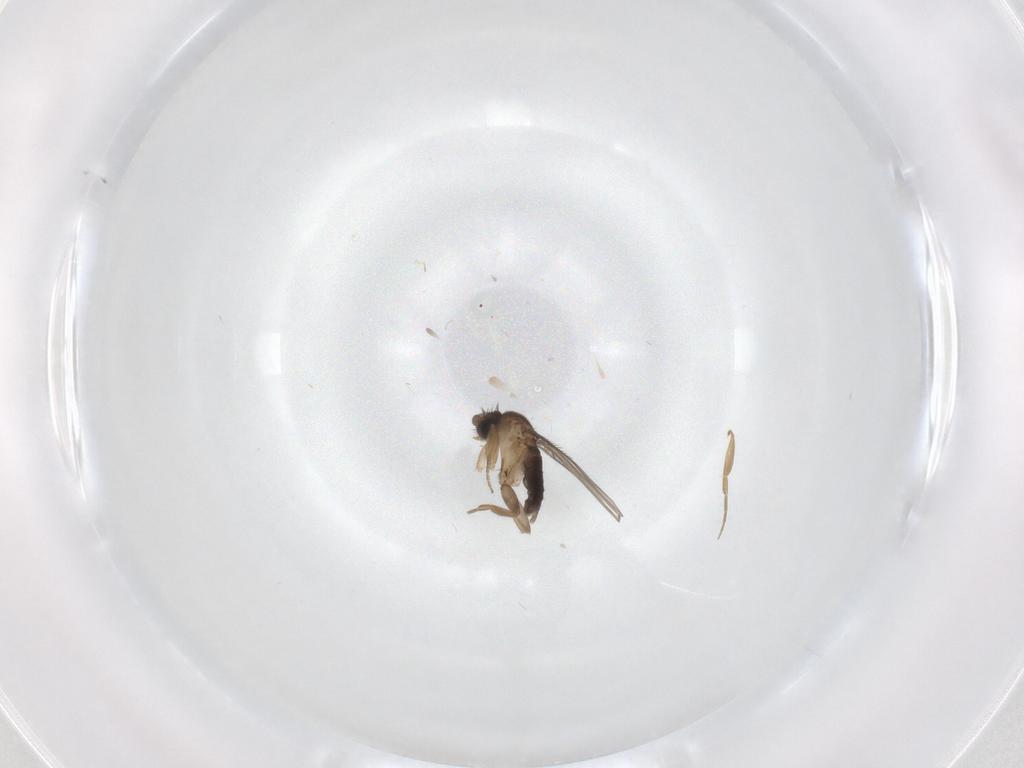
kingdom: Animalia
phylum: Arthropoda
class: Insecta
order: Diptera
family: Phoridae
